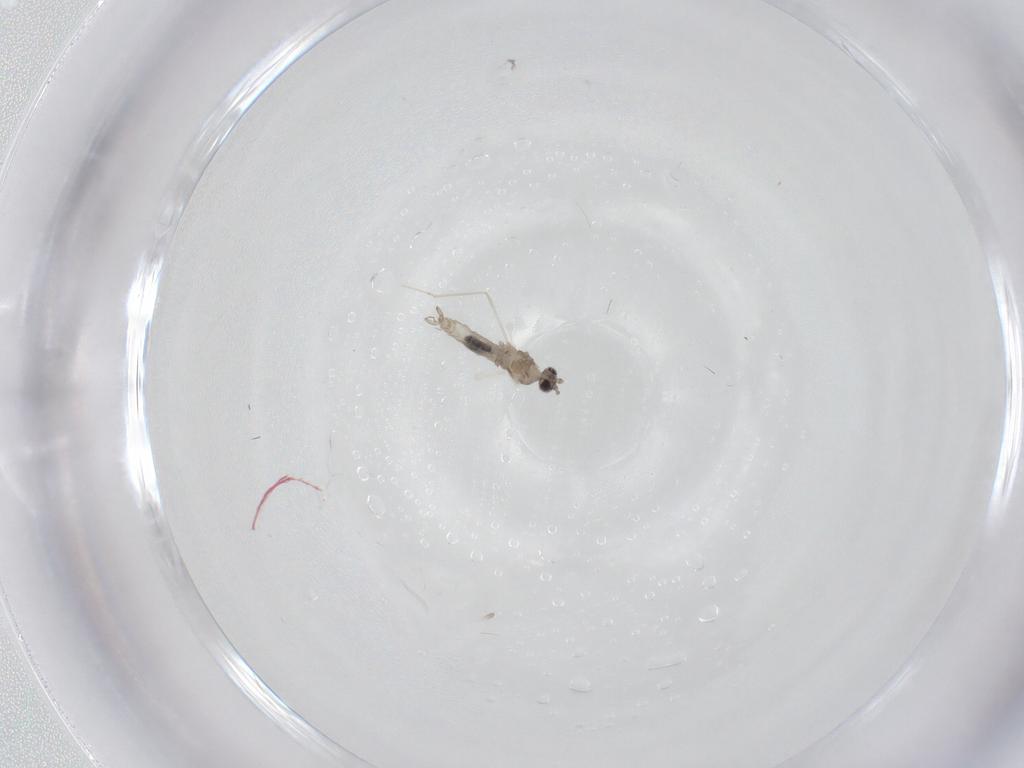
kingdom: Animalia
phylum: Arthropoda
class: Insecta
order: Diptera
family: Cecidomyiidae
